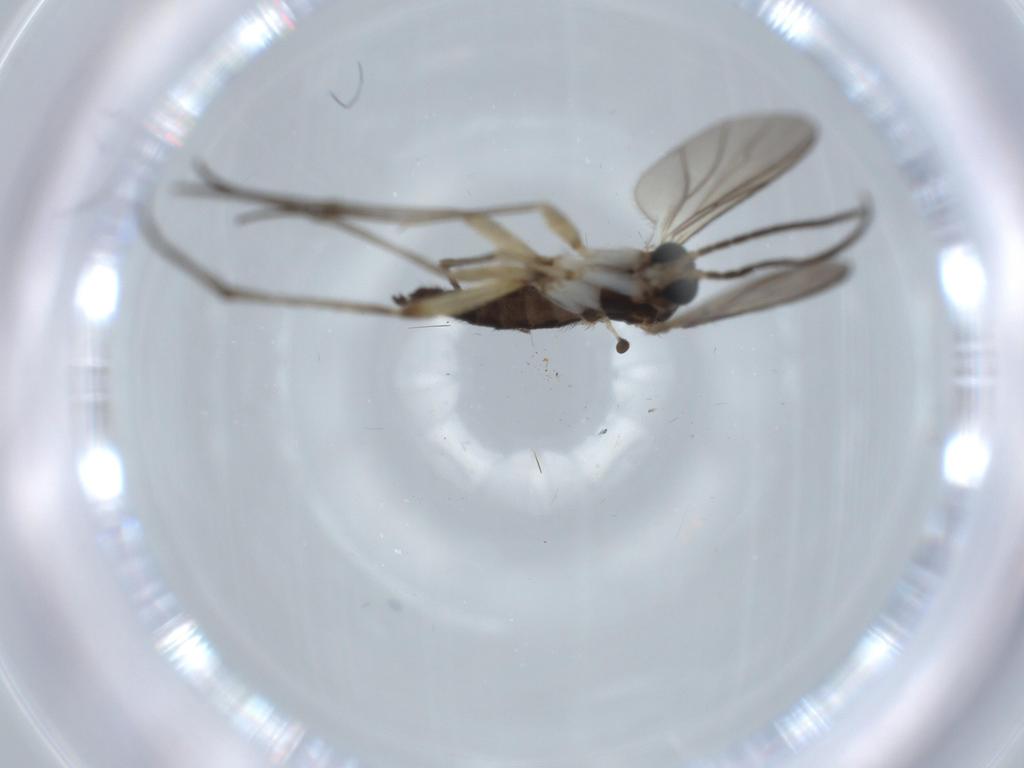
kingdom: Animalia
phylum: Arthropoda
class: Insecta
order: Diptera
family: Sciaridae
